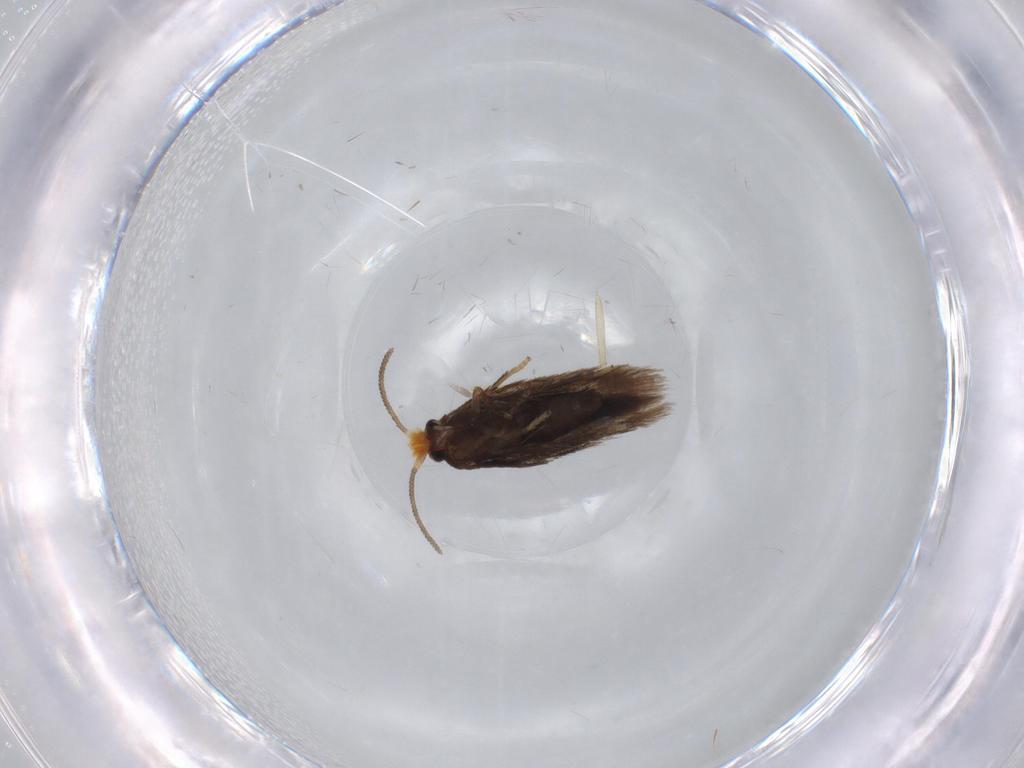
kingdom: Animalia
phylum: Arthropoda
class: Insecta
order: Lepidoptera
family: Nepticulidae
